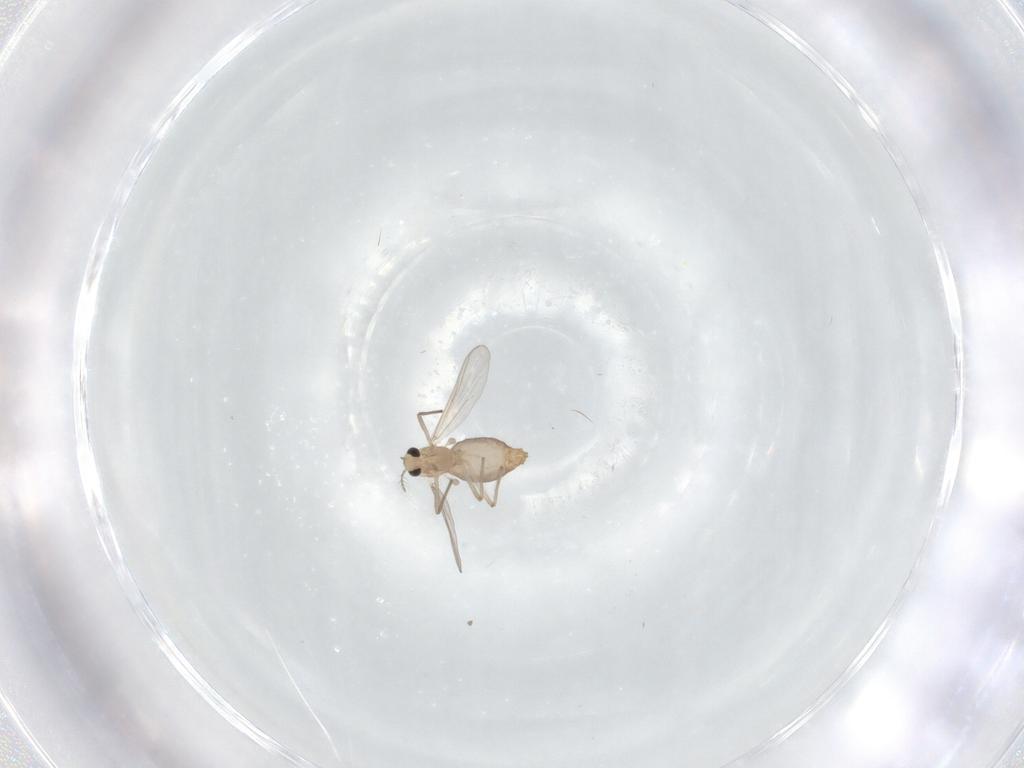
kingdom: Animalia
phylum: Arthropoda
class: Insecta
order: Diptera
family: Chironomidae
